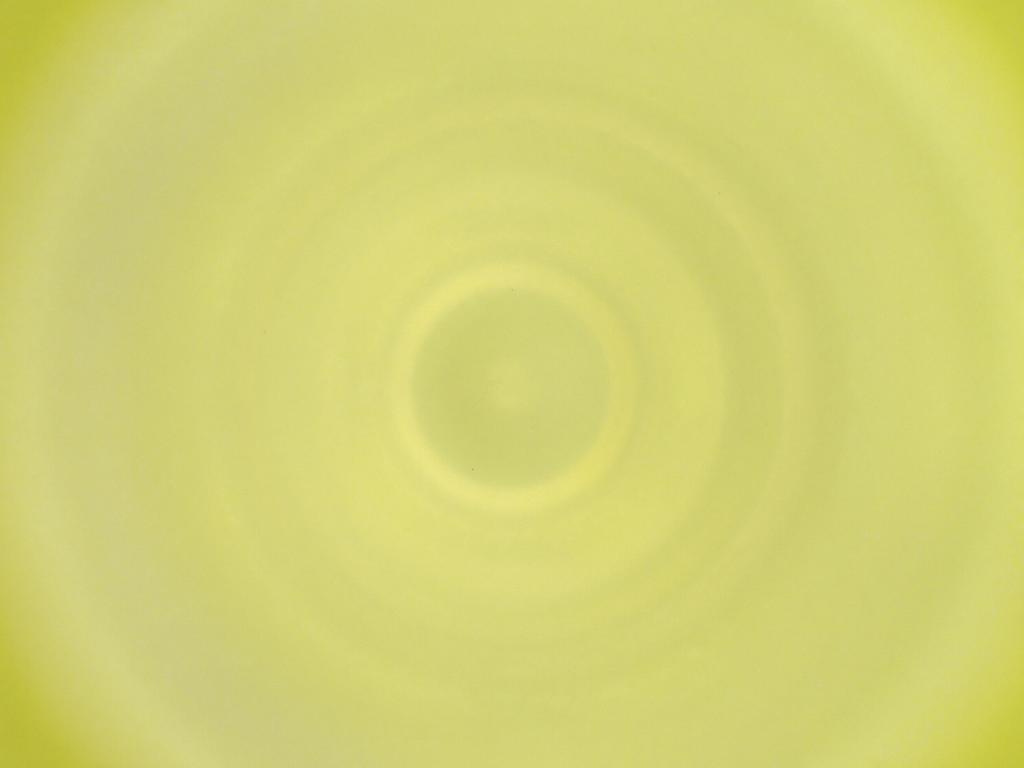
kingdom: Animalia
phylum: Arthropoda
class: Insecta
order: Diptera
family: Cecidomyiidae
